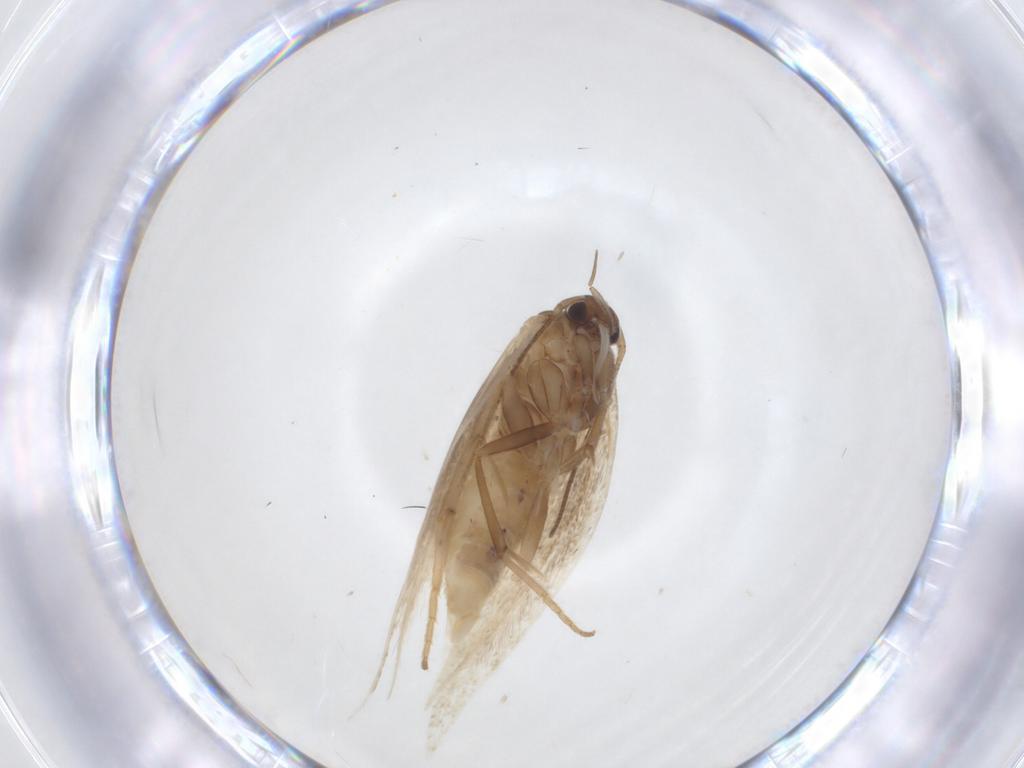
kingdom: Animalia
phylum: Arthropoda
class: Insecta
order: Lepidoptera
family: Elachistidae
